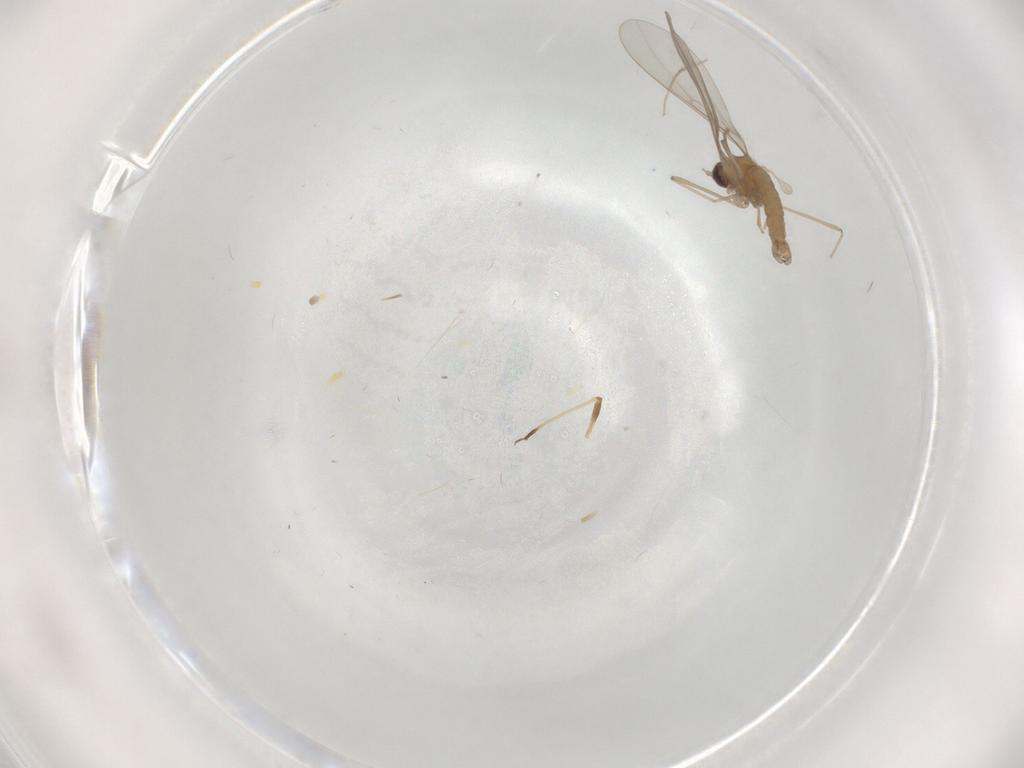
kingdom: Animalia
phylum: Arthropoda
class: Insecta
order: Diptera
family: Cecidomyiidae
